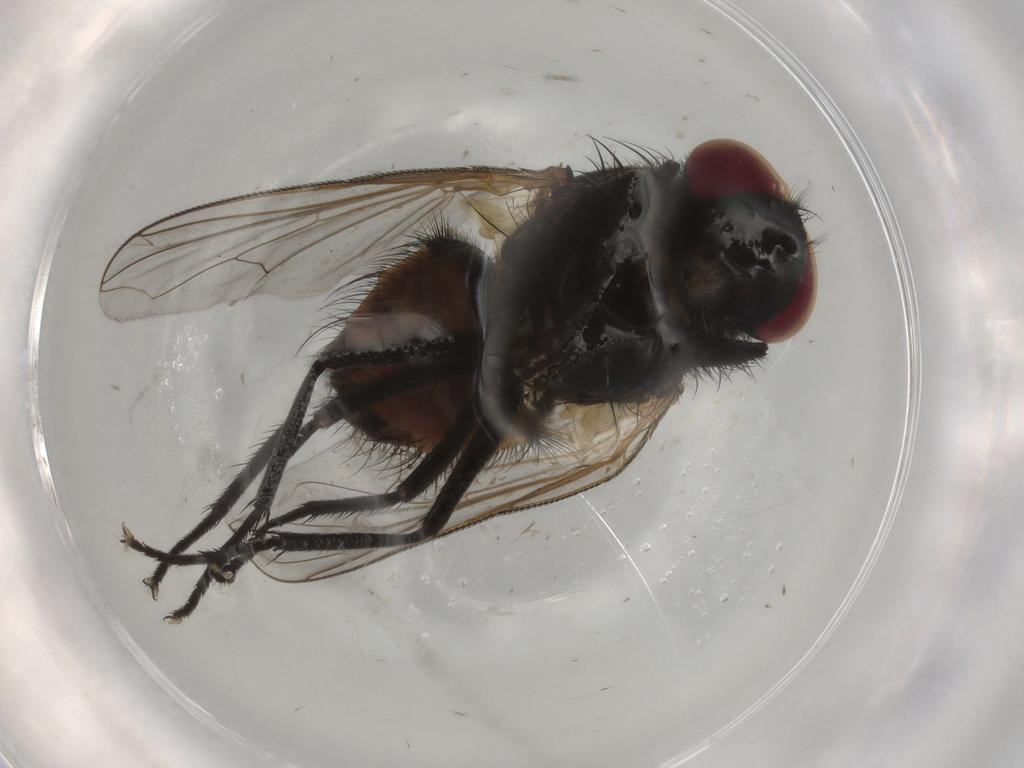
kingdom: Animalia
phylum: Arthropoda
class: Insecta
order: Diptera
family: Sciaridae
